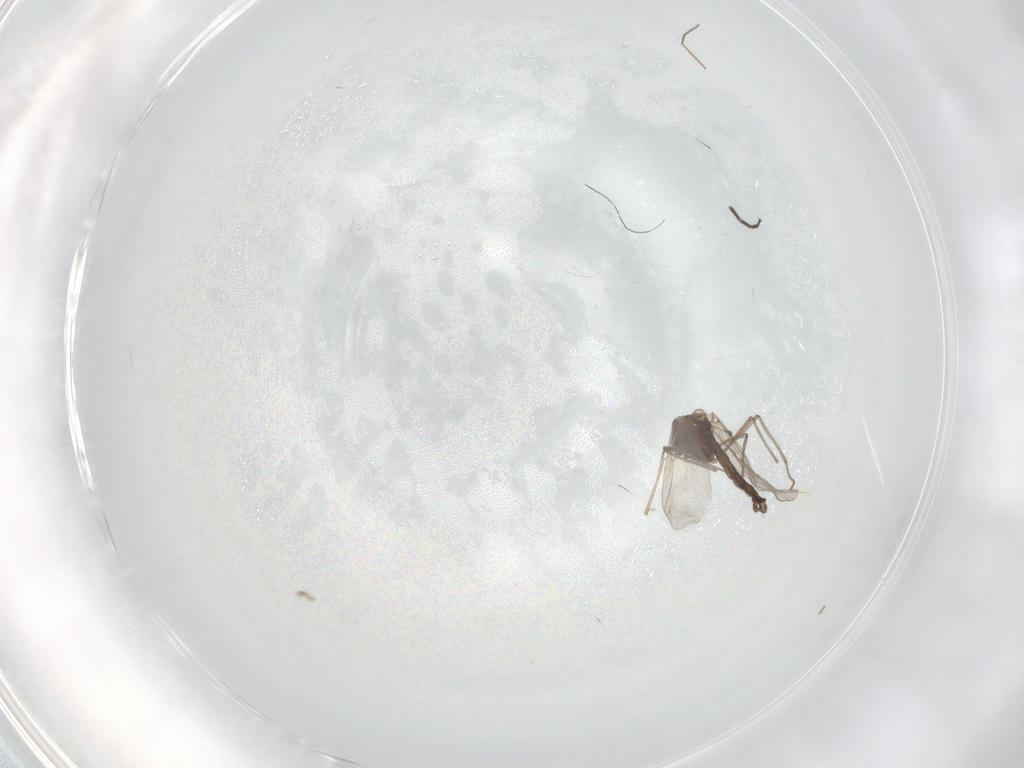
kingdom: Animalia
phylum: Arthropoda
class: Insecta
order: Diptera
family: Chironomidae
